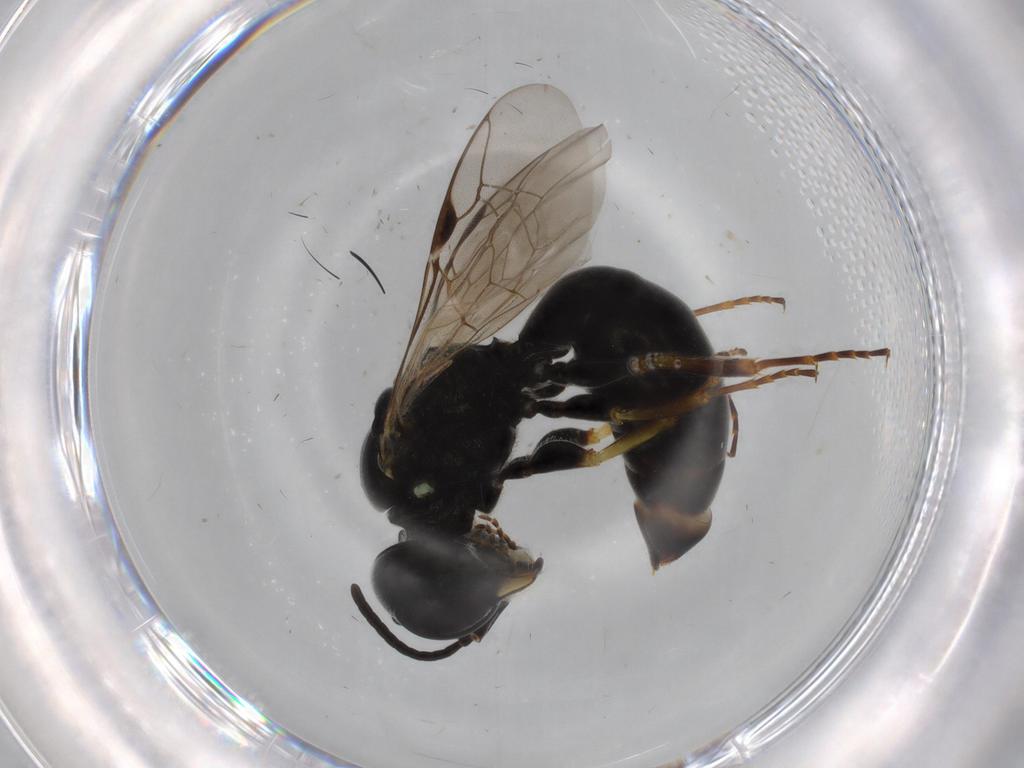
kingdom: Animalia
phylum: Arthropoda
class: Insecta
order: Hymenoptera
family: Crabronidae
